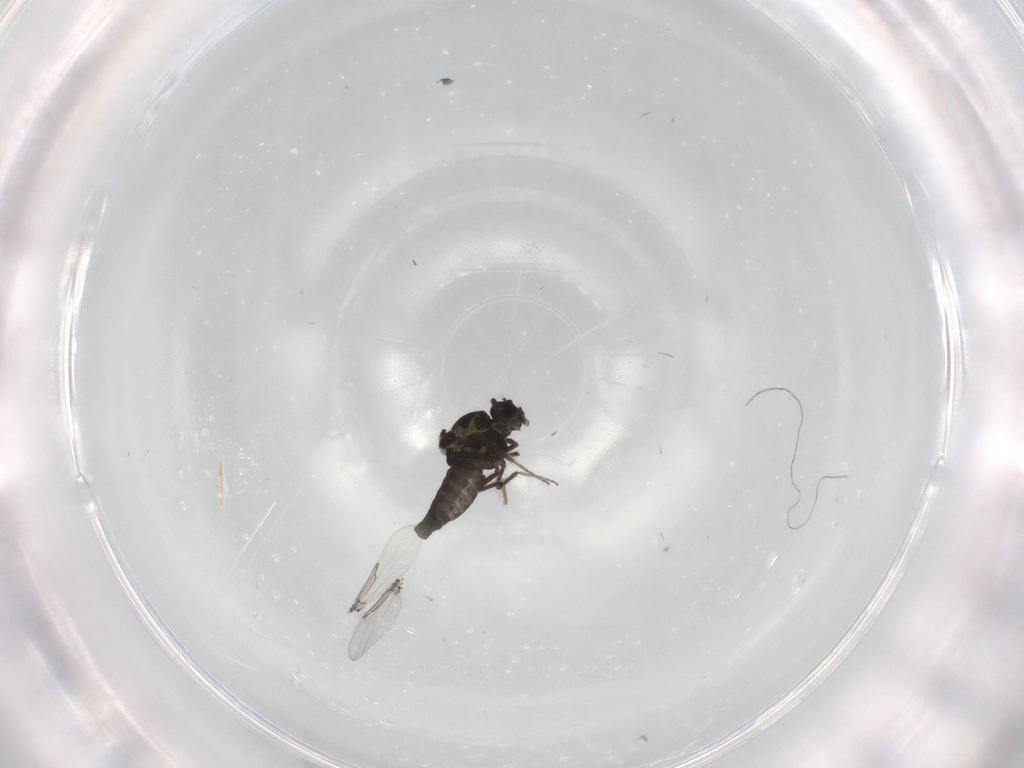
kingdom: Animalia
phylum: Arthropoda
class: Insecta
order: Diptera
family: Ceratopogonidae
